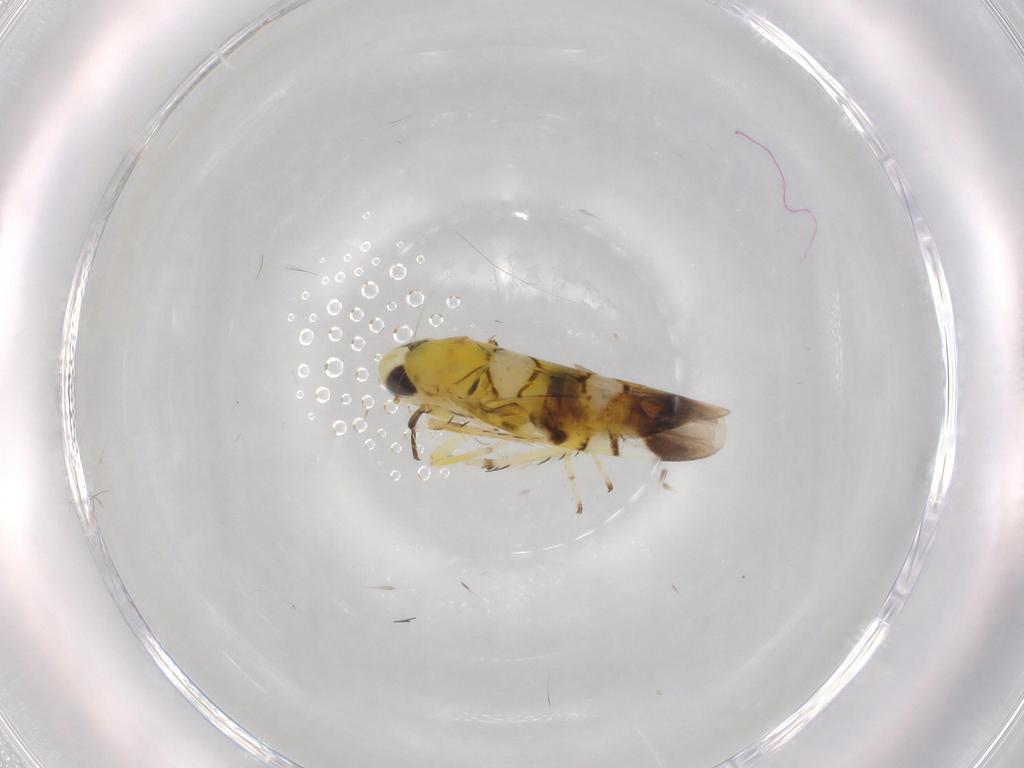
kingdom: Animalia
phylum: Arthropoda
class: Insecta
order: Hemiptera
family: Cicadellidae
